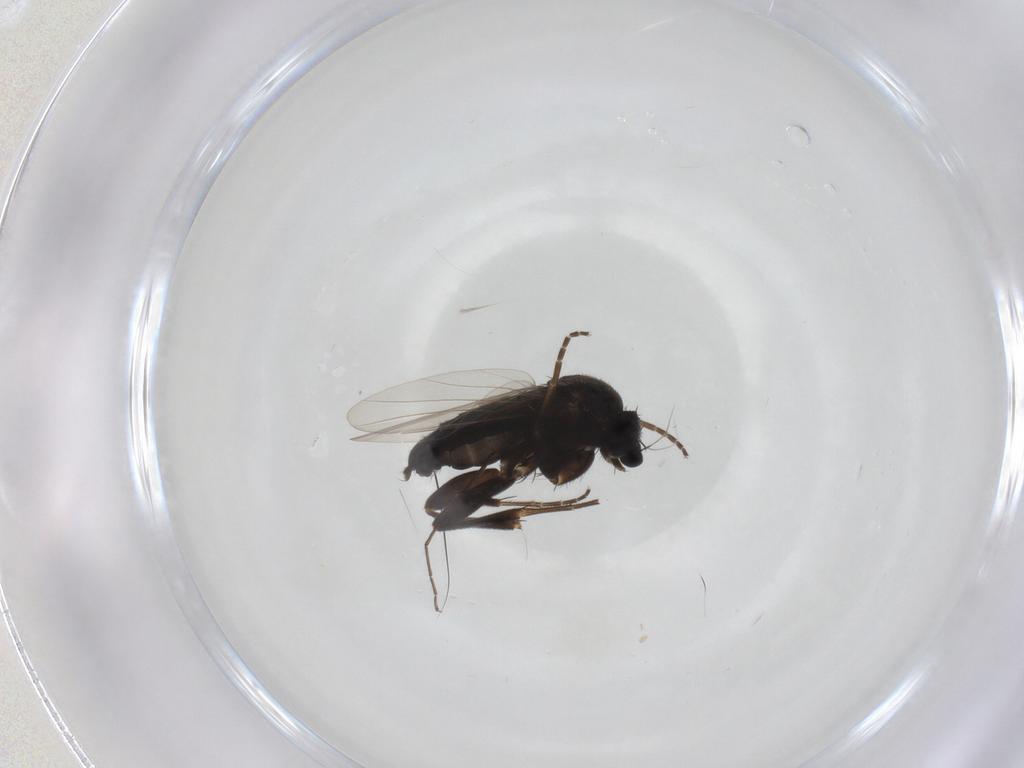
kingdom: Animalia
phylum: Arthropoda
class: Insecta
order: Diptera
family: Phoridae
